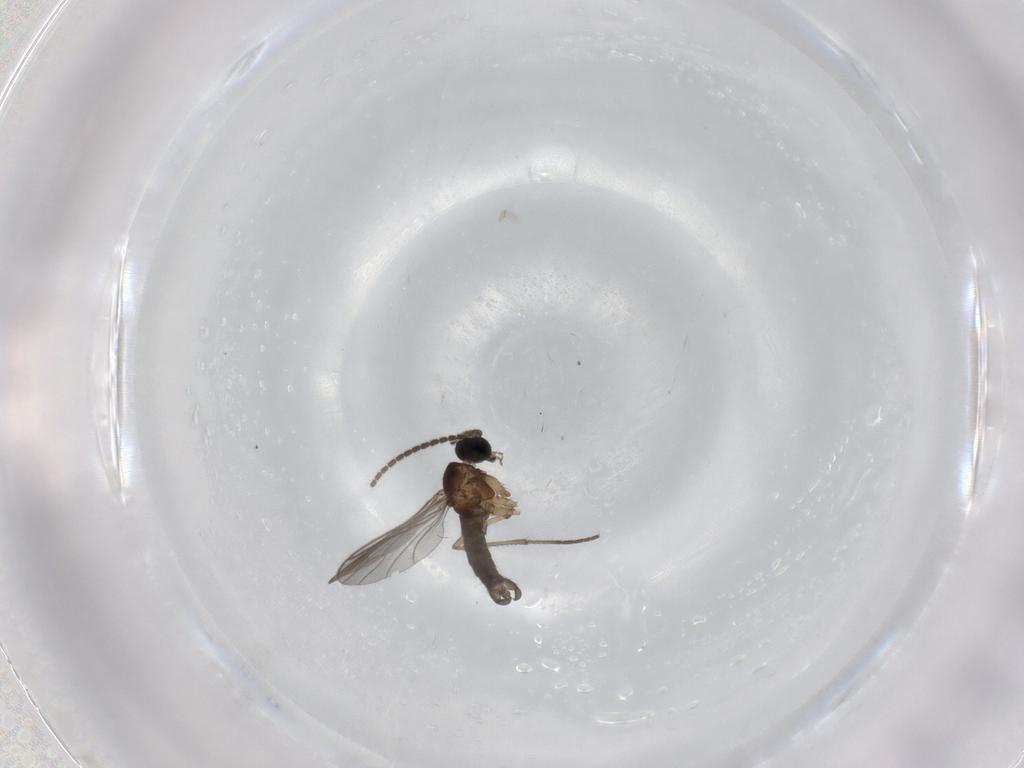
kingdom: Animalia
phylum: Arthropoda
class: Insecta
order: Diptera
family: Sciaridae
